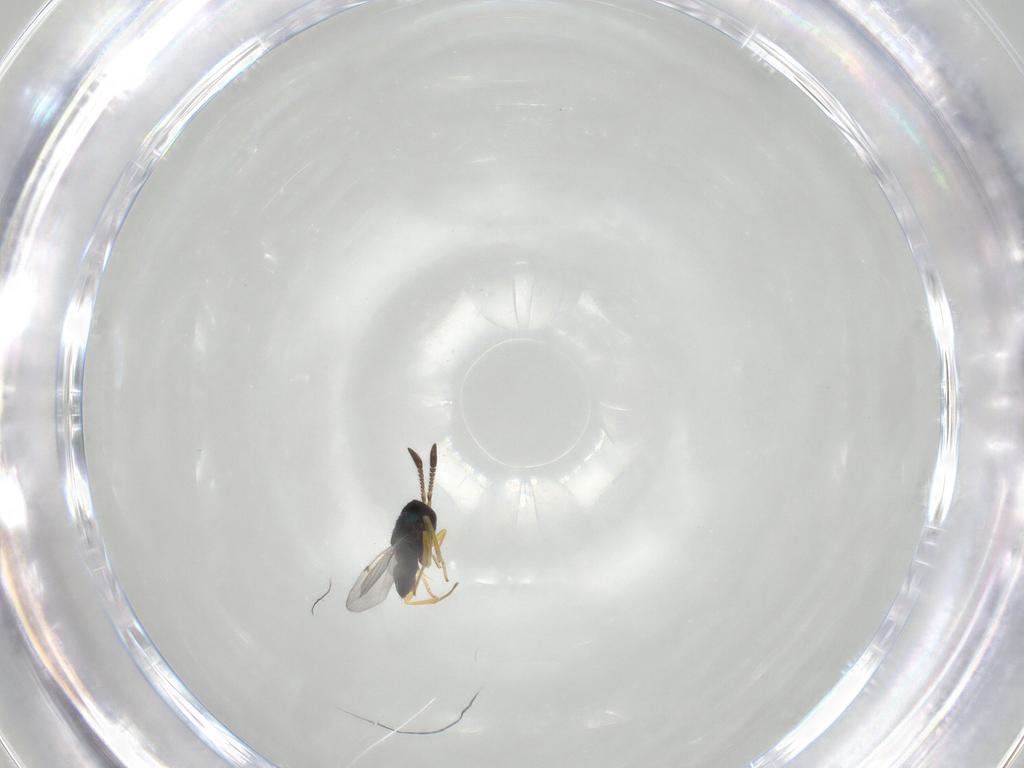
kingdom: Animalia
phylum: Arthropoda
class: Insecta
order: Hymenoptera
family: Encyrtidae
